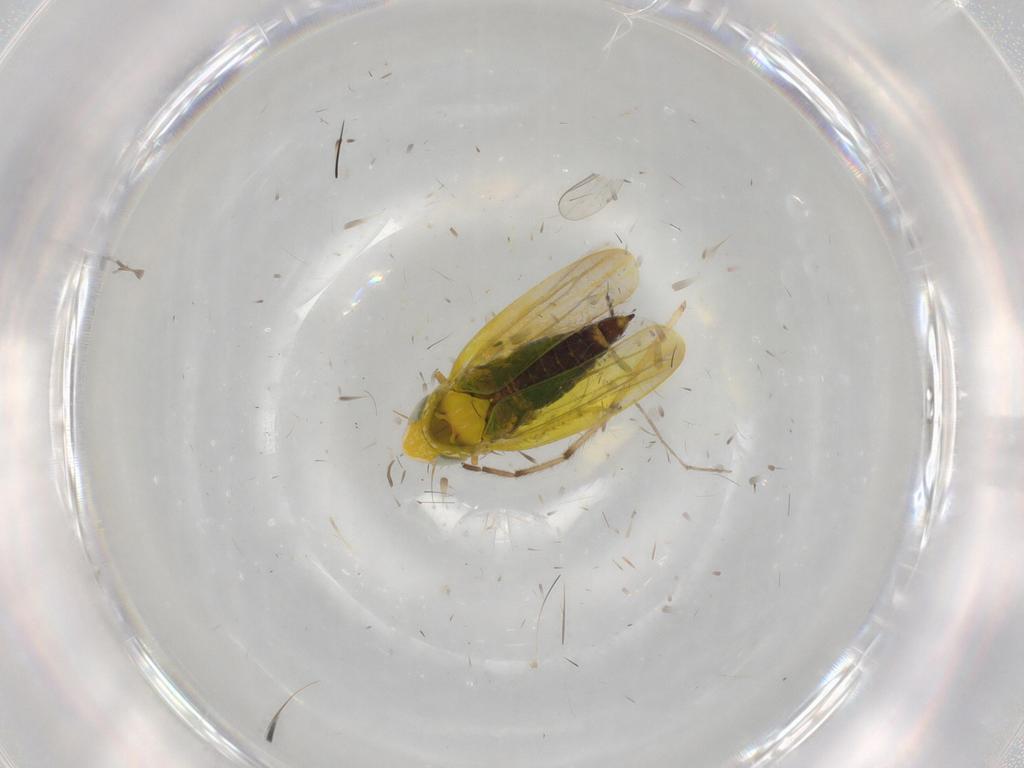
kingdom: Animalia
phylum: Arthropoda
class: Insecta
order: Hemiptera
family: Cicadellidae
